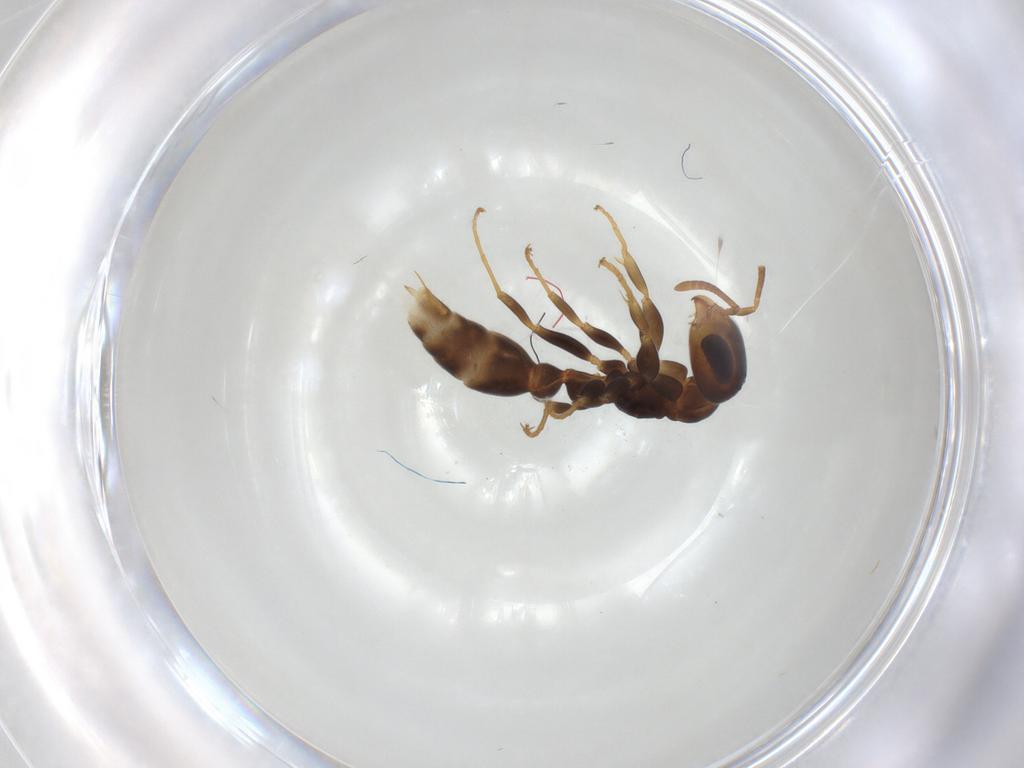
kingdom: Animalia
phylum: Arthropoda
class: Insecta
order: Hymenoptera
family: Formicidae
